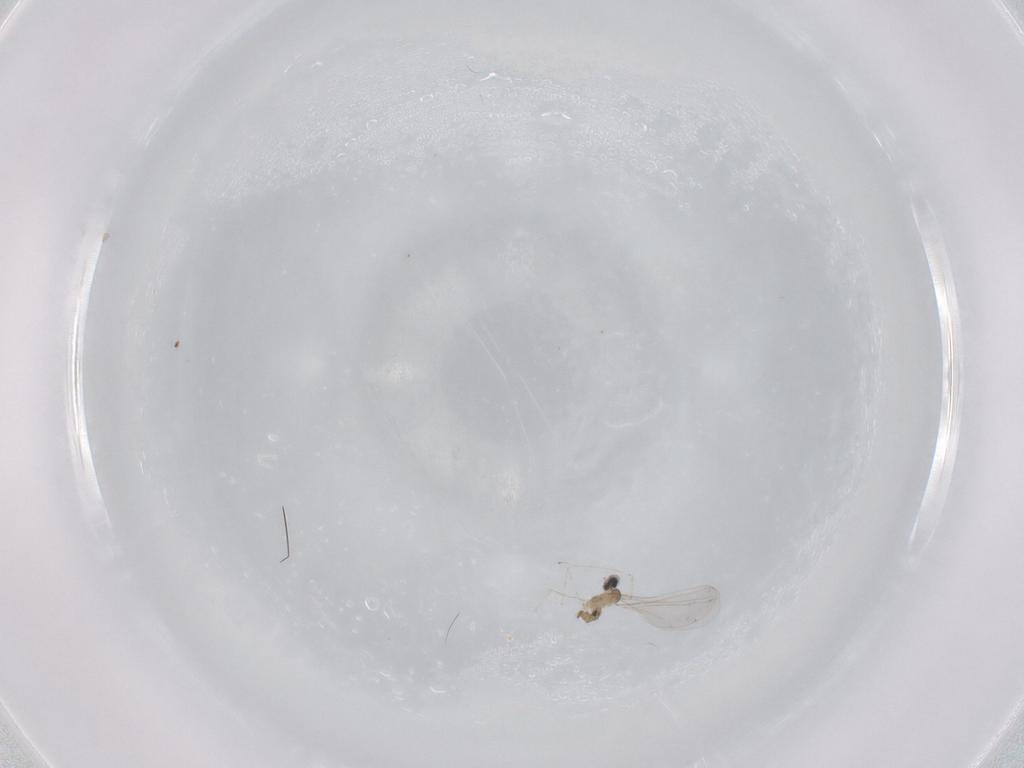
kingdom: Animalia
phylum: Arthropoda
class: Insecta
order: Diptera
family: Cecidomyiidae
